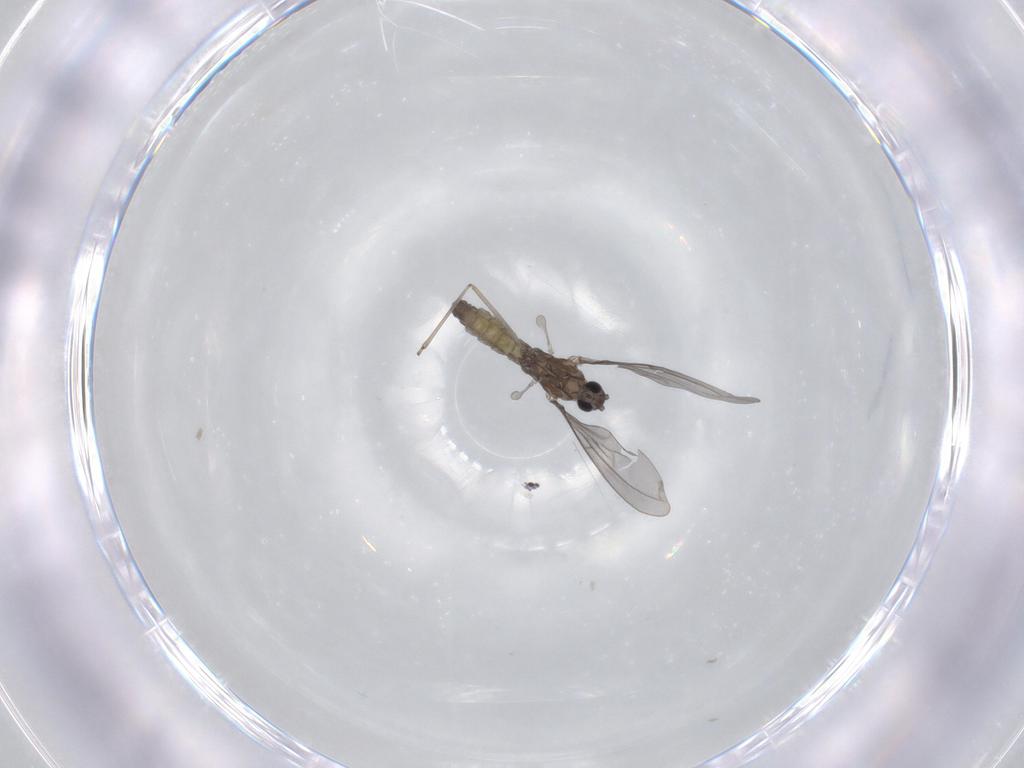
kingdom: Animalia
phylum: Arthropoda
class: Insecta
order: Diptera
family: Cecidomyiidae
